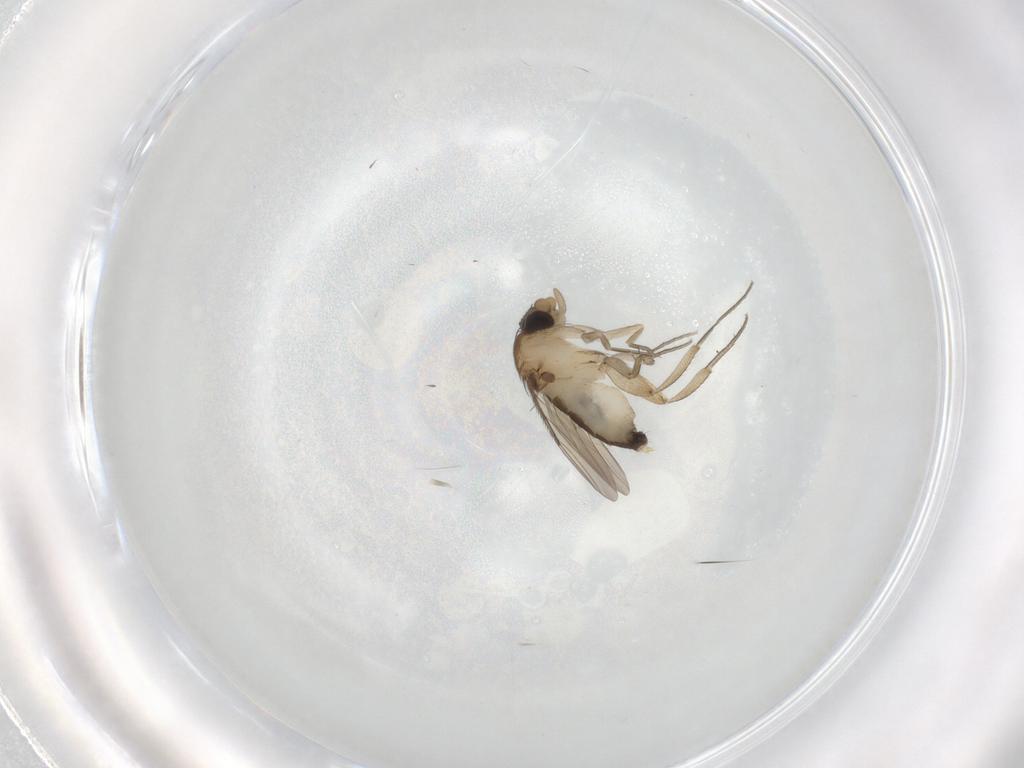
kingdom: Animalia
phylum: Arthropoda
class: Insecta
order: Diptera
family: Phoridae
